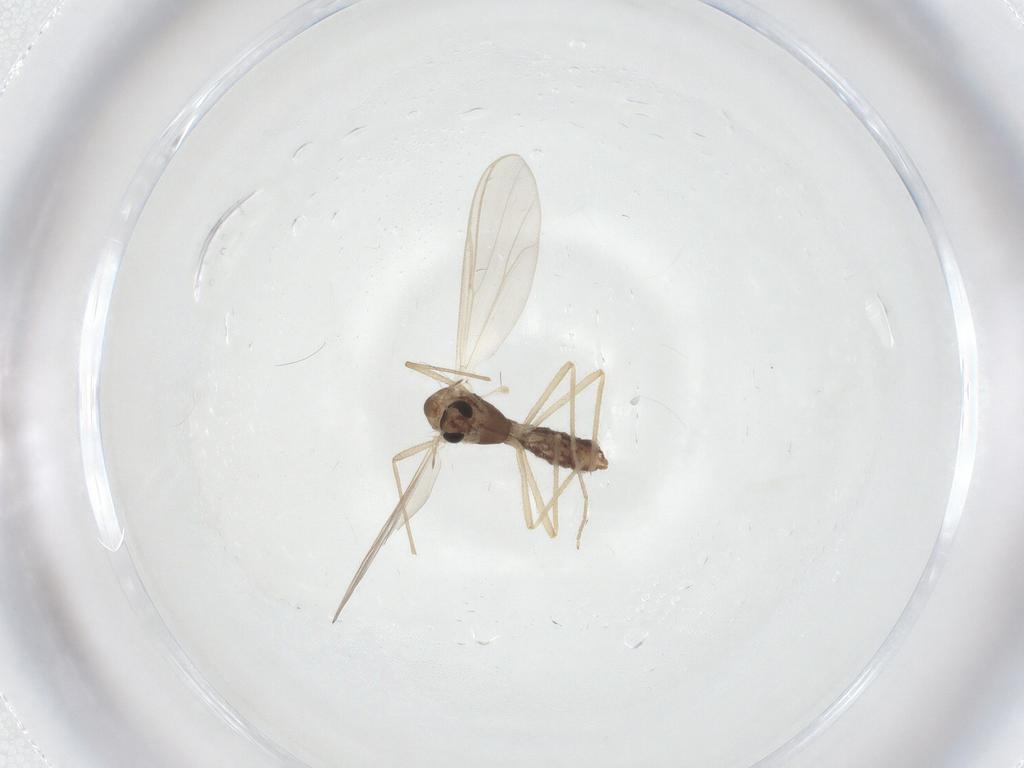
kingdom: Animalia
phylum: Arthropoda
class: Insecta
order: Diptera
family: Chironomidae
